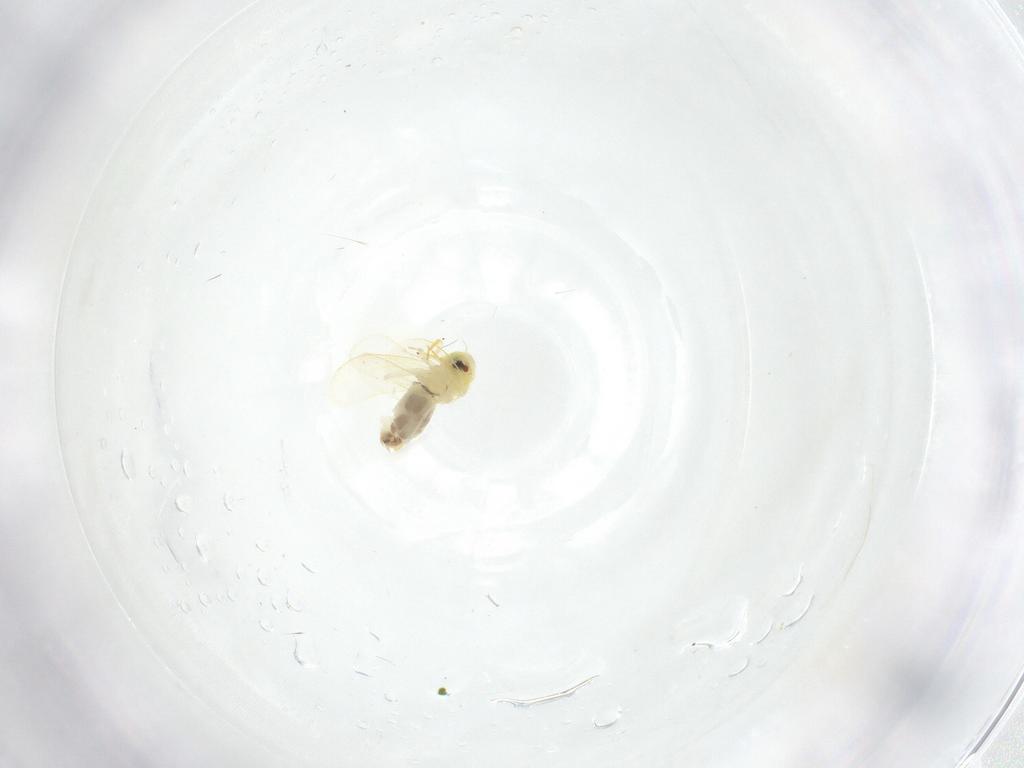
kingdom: Animalia
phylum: Arthropoda
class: Insecta
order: Hemiptera
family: Aleyrodidae
